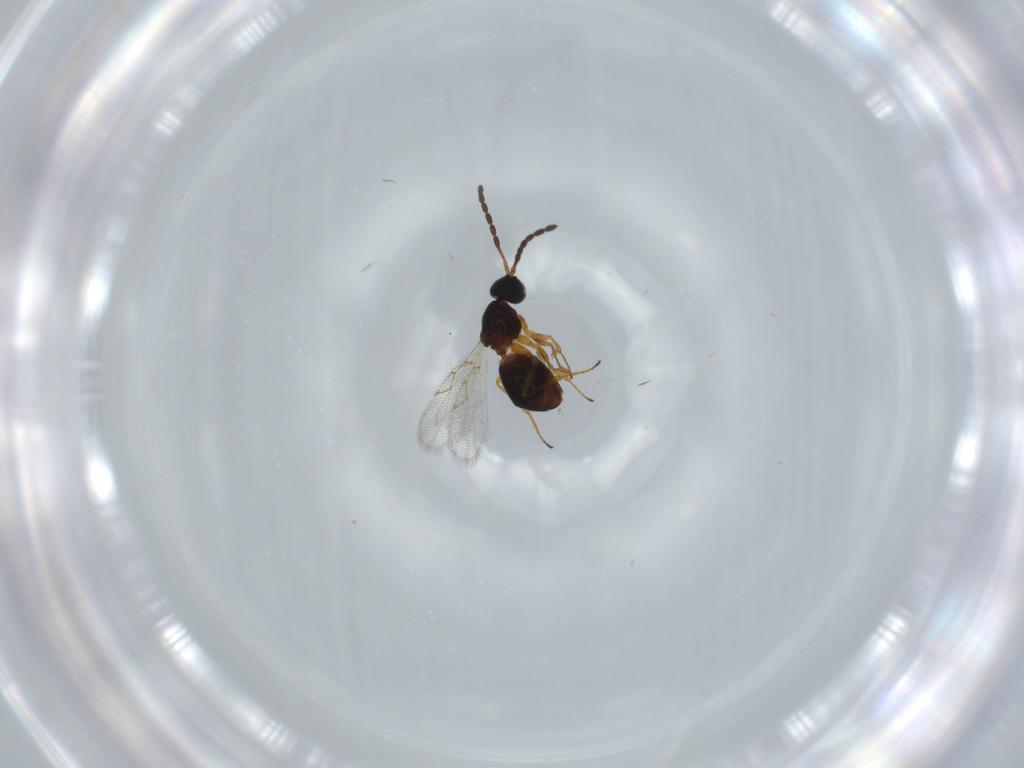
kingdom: Animalia
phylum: Arthropoda
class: Insecta
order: Hymenoptera
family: Figitidae
